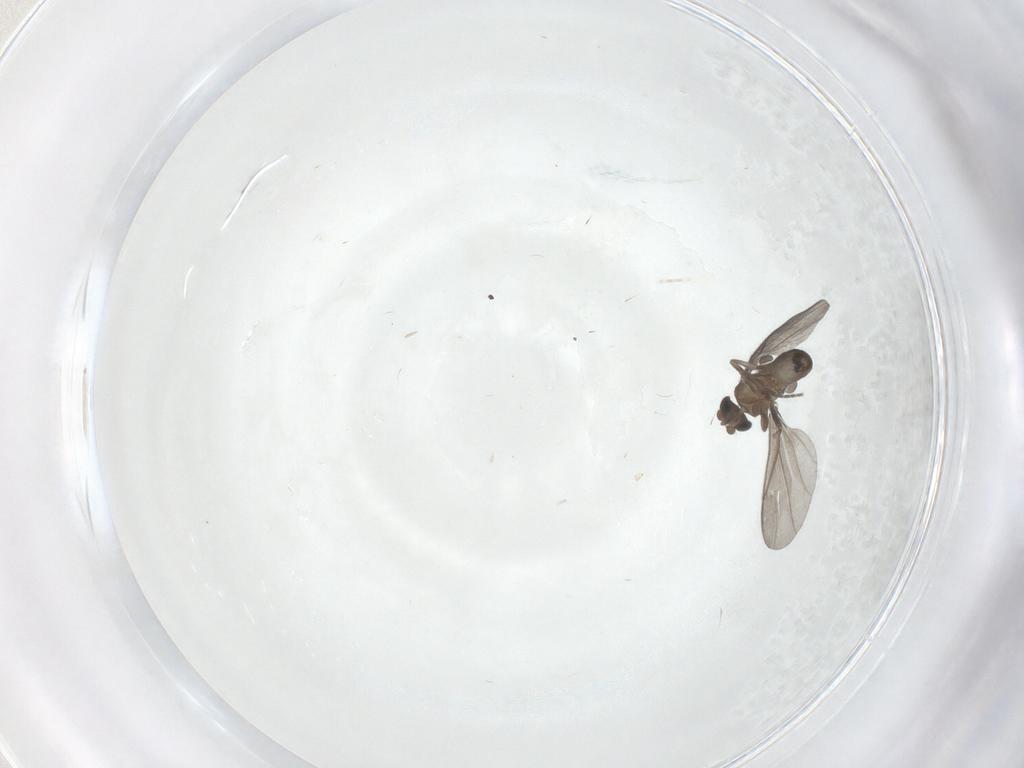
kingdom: Animalia
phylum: Arthropoda
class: Insecta
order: Diptera
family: Phoridae
